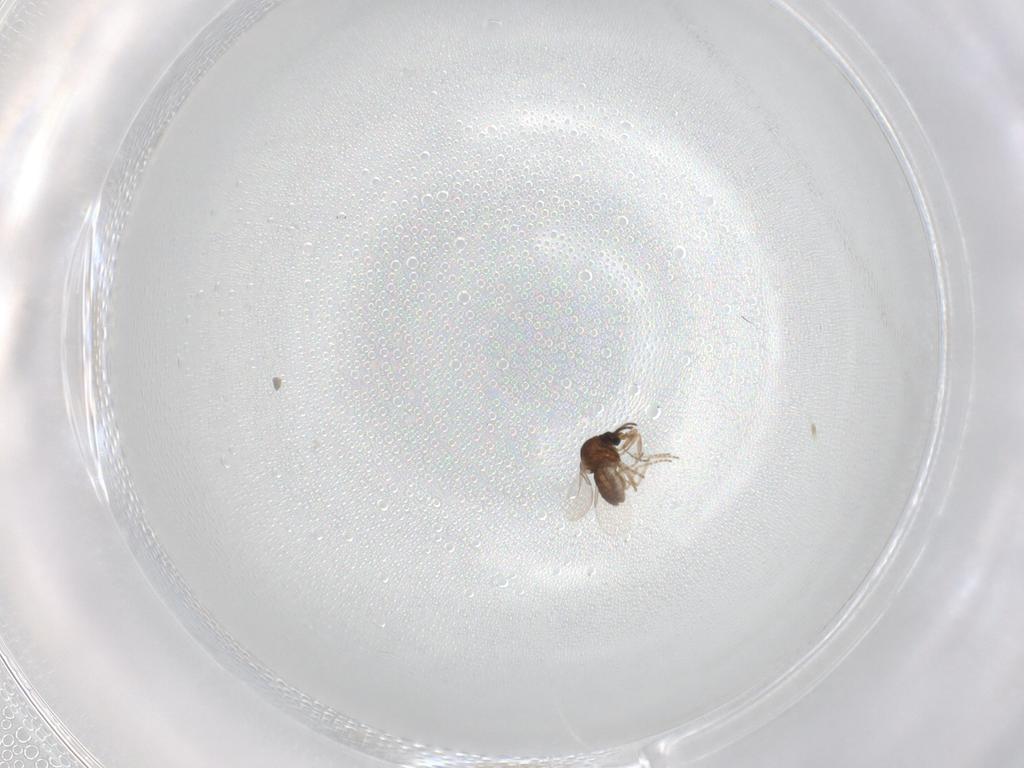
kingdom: Animalia
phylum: Arthropoda
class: Insecta
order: Diptera
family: Ceratopogonidae
